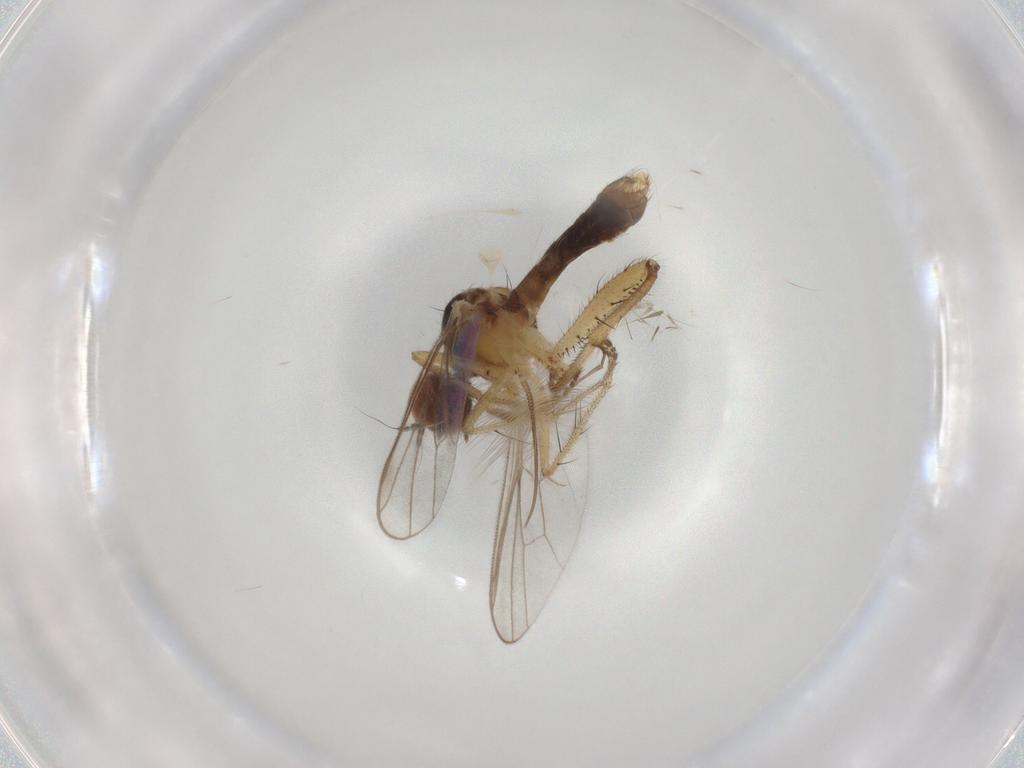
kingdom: Animalia
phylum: Arthropoda
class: Insecta
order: Diptera
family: Hybotidae
